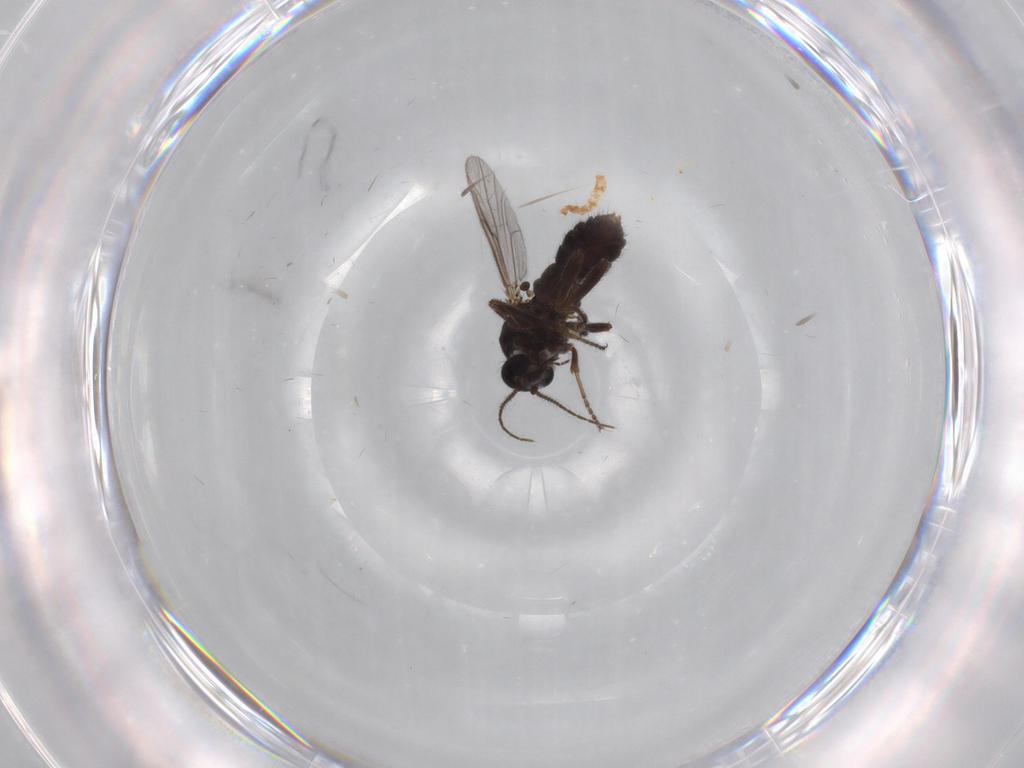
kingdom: Animalia
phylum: Arthropoda
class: Insecta
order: Diptera
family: Ceratopogonidae
